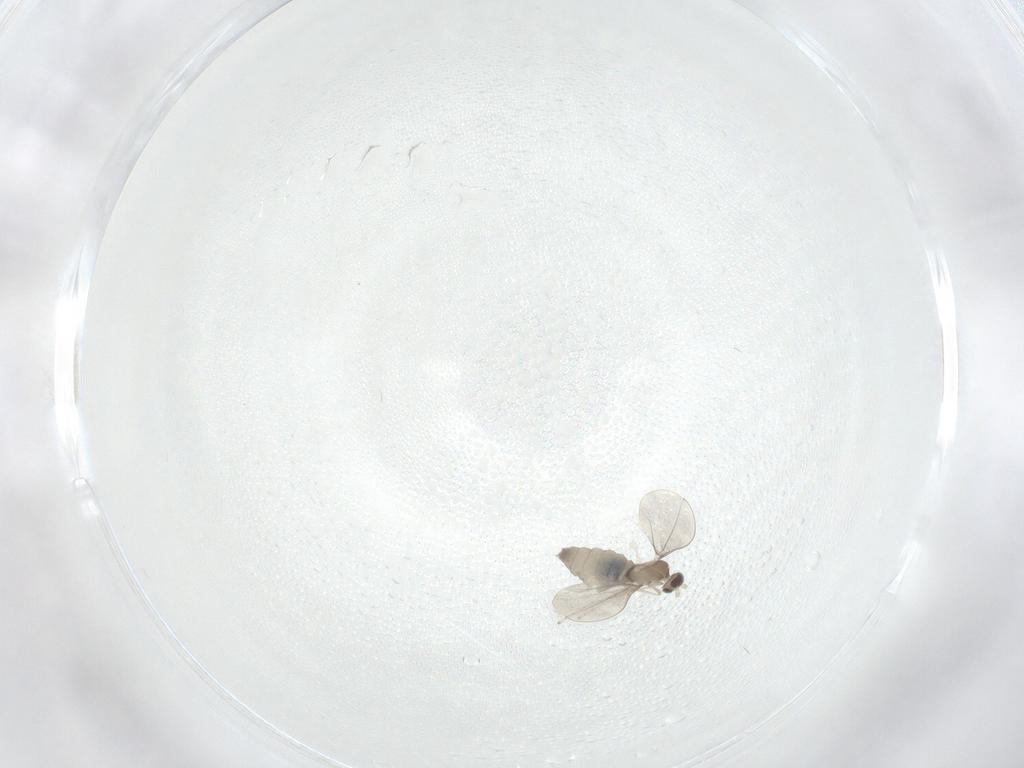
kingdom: Animalia
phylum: Arthropoda
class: Insecta
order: Diptera
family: Cecidomyiidae
